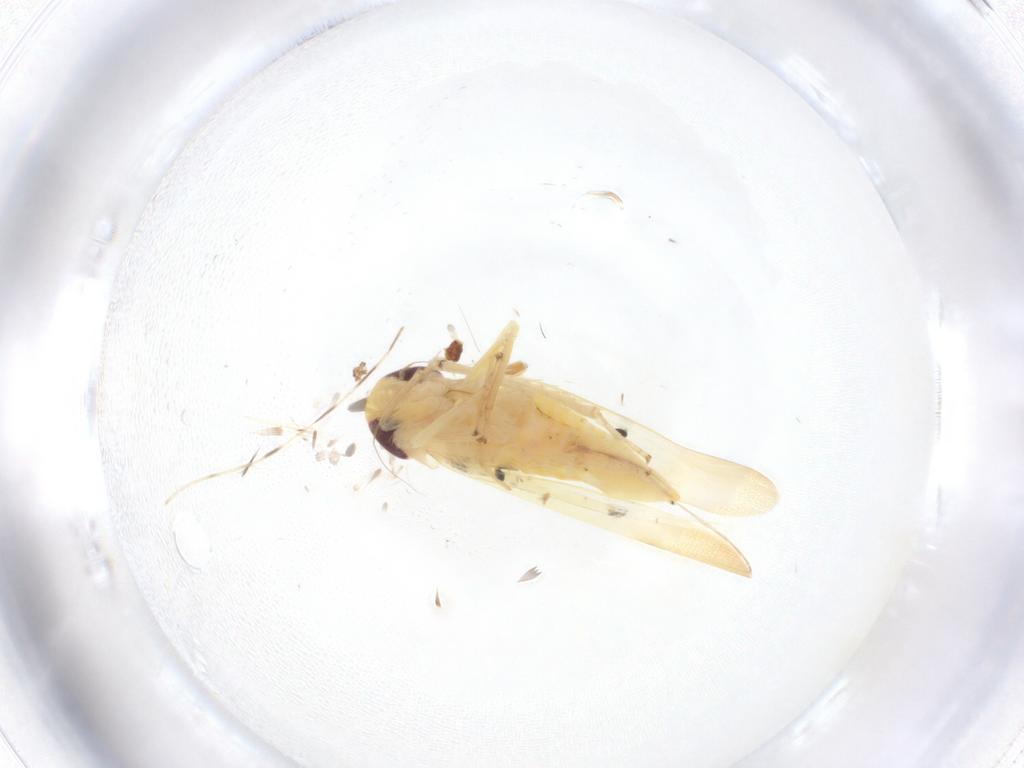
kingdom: Animalia
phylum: Arthropoda
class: Insecta
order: Hemiptera
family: Cicadellidae
